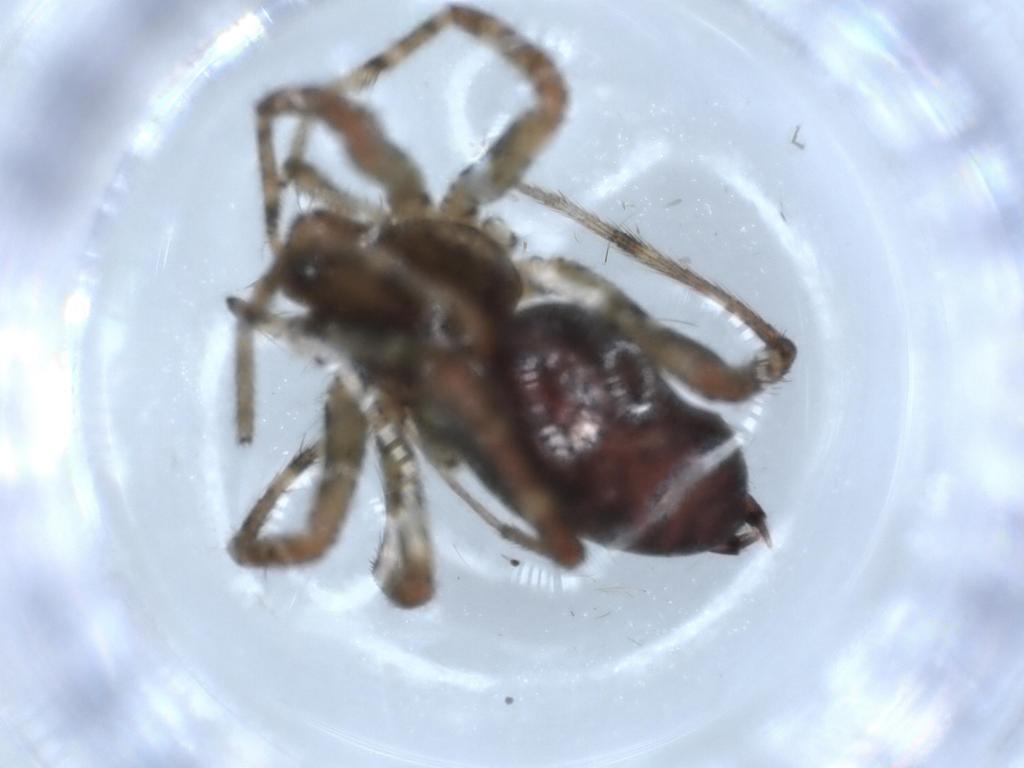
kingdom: Animalia
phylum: Arthropoda
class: Arachnida
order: Araneae
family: Agelenidae
